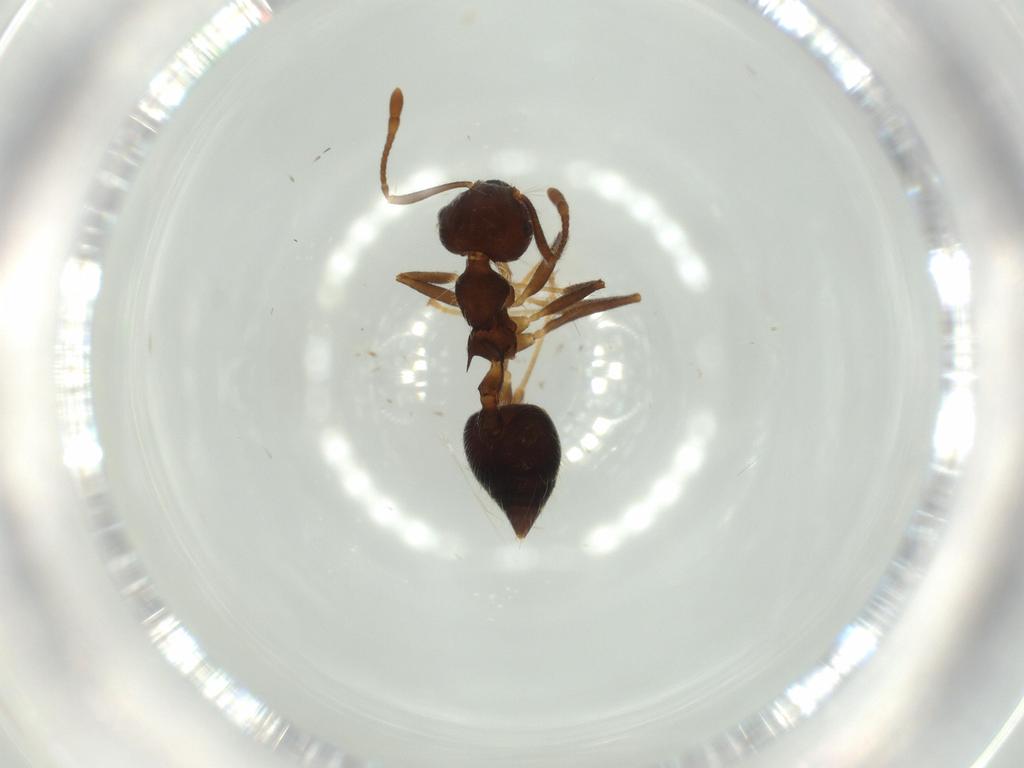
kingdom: Animalia
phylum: Arthropoda
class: Insecta
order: Hymenoptera
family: Formicidae
